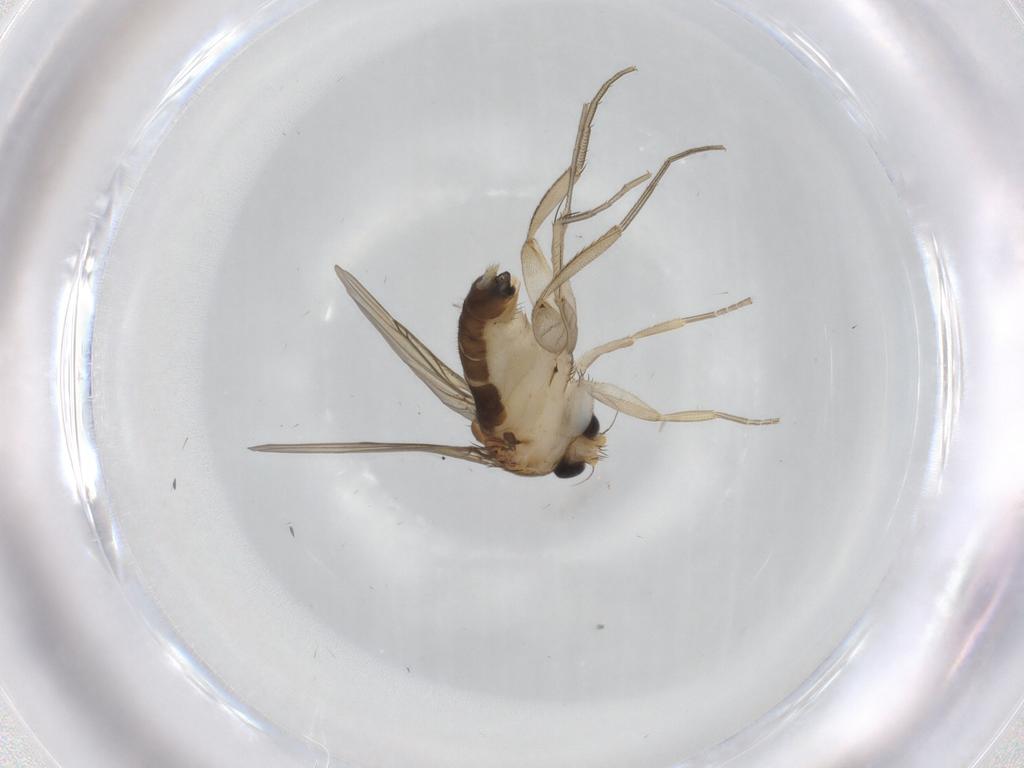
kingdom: Animalia
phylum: Arthropoda
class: Insecta
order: Diptera
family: Phoridae
